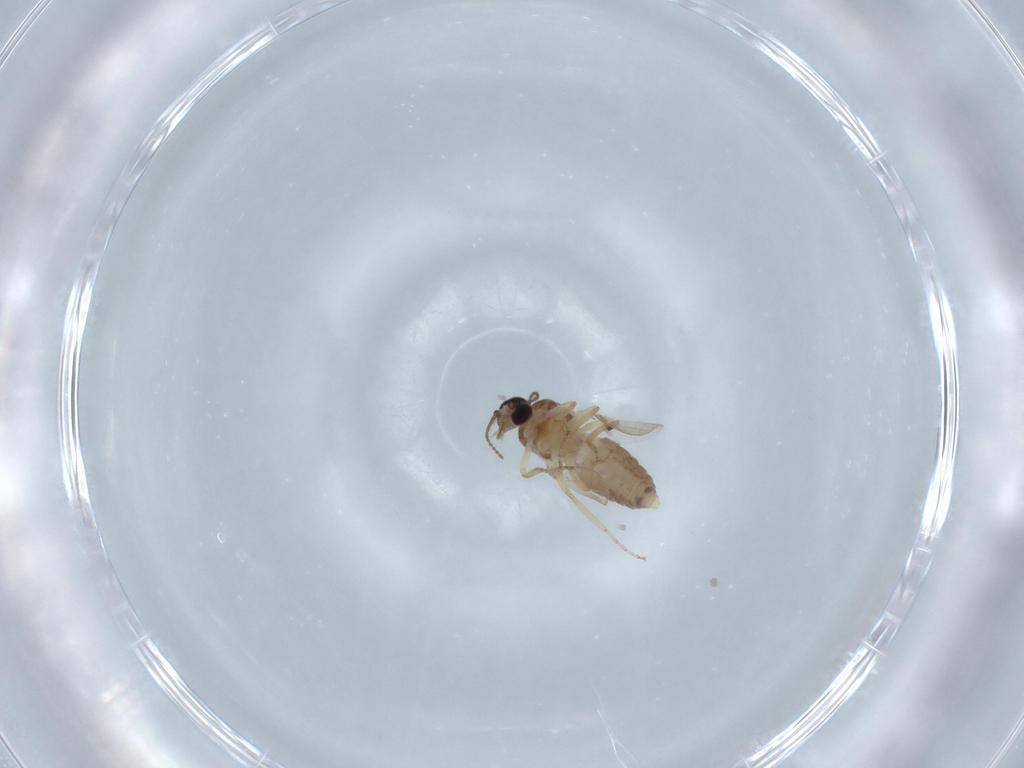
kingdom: Animalia
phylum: Arthropoda
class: Insecta
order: Diptera
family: Ceratopogonidae
